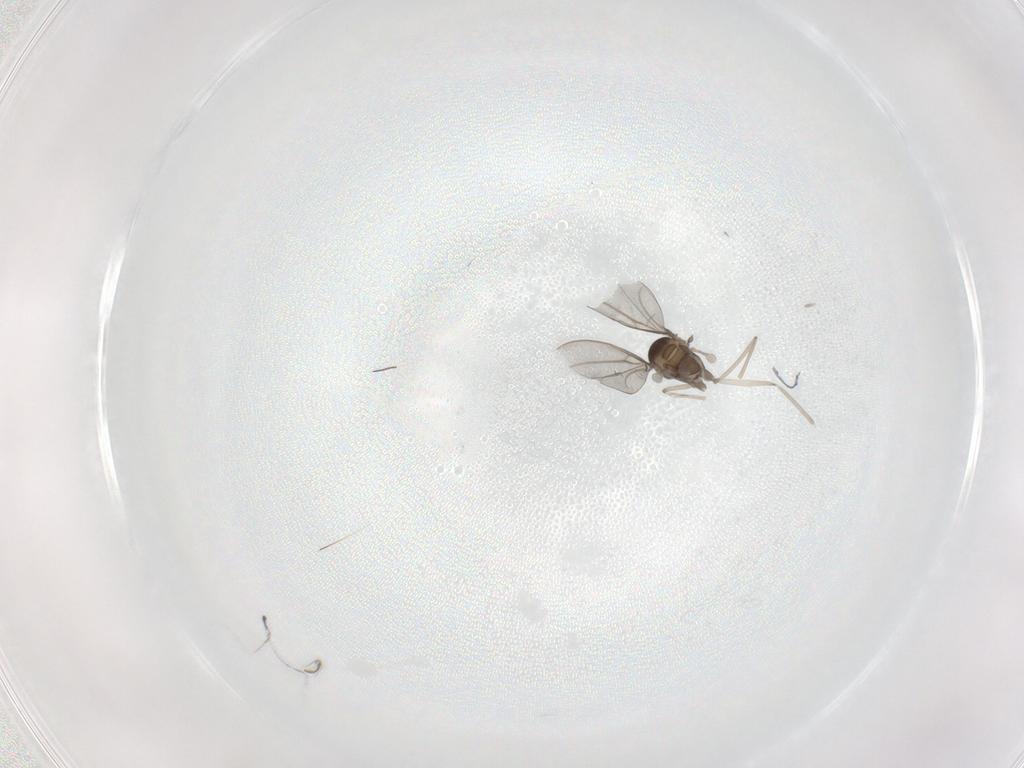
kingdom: Animalia
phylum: Arthropoda
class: Insecta
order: Diptera
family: Cecidomyiidae
